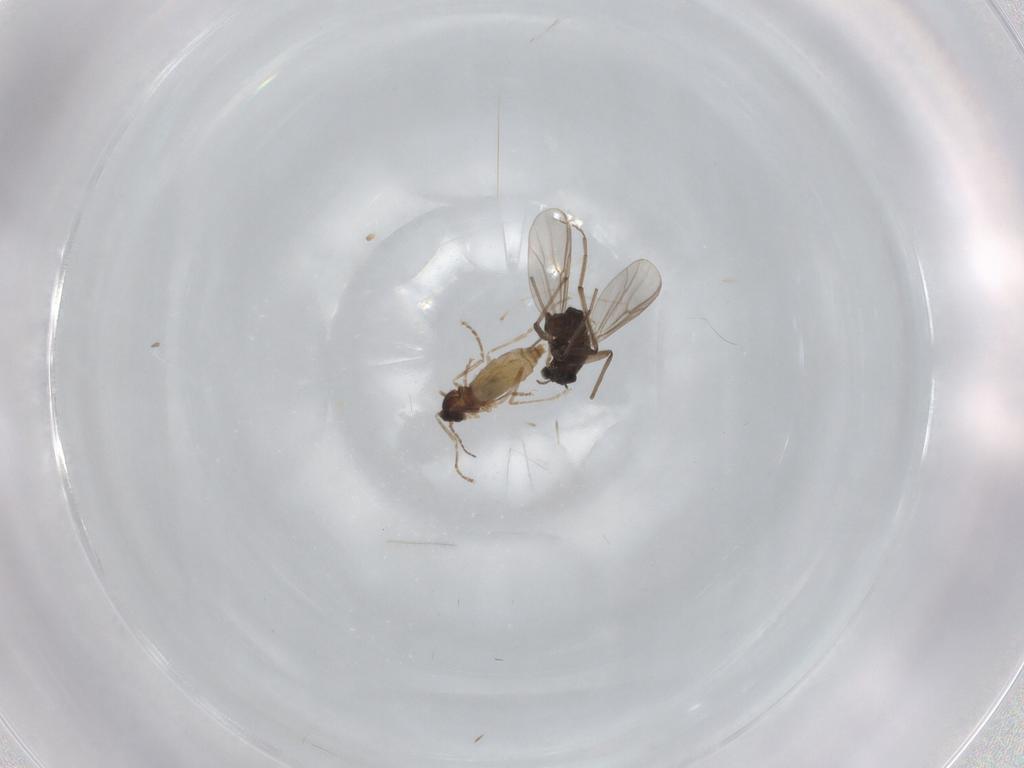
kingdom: Animalia
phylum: Arthropoda
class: Insecta
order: Diptera
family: Chironomidae
